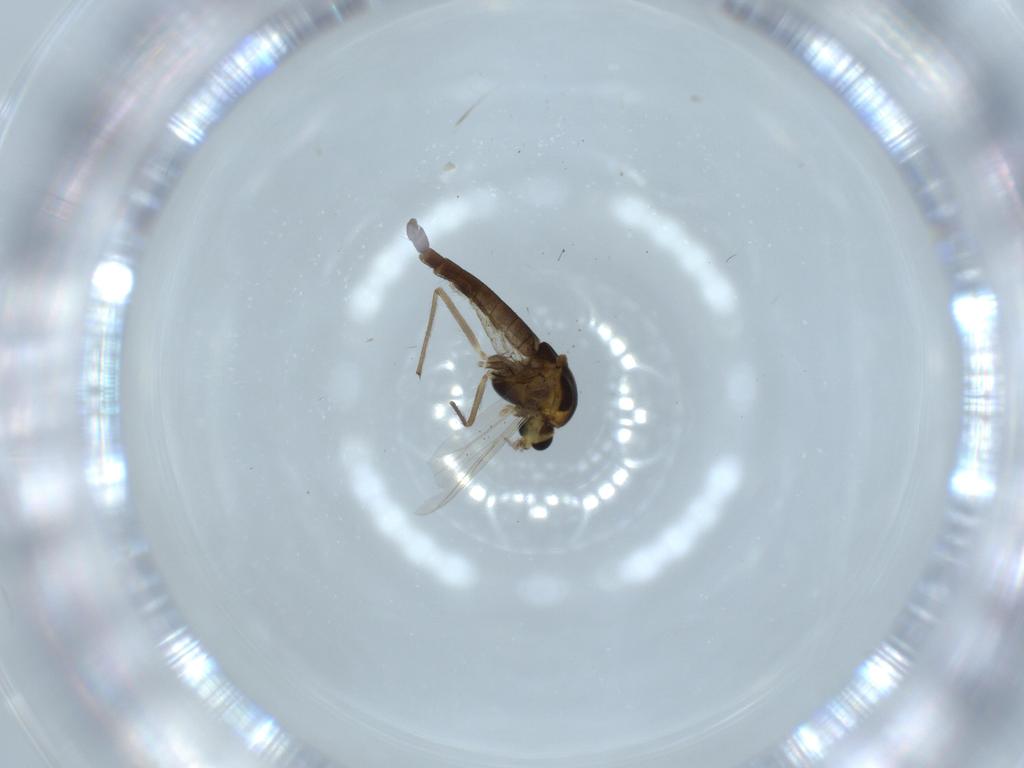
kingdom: Animalia
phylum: Arthropoda
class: Insecta
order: Diptera
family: Chironomidae
